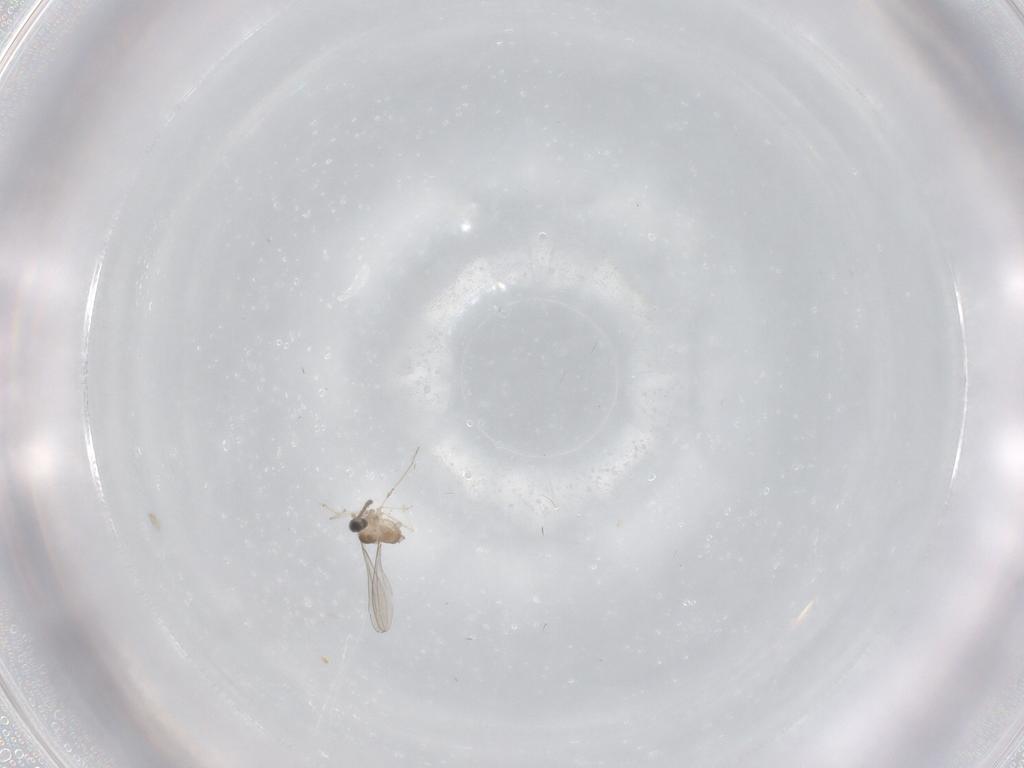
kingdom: Animalia
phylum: Arthropoda
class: Insecta
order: Diptera
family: Cecidomyiidae
